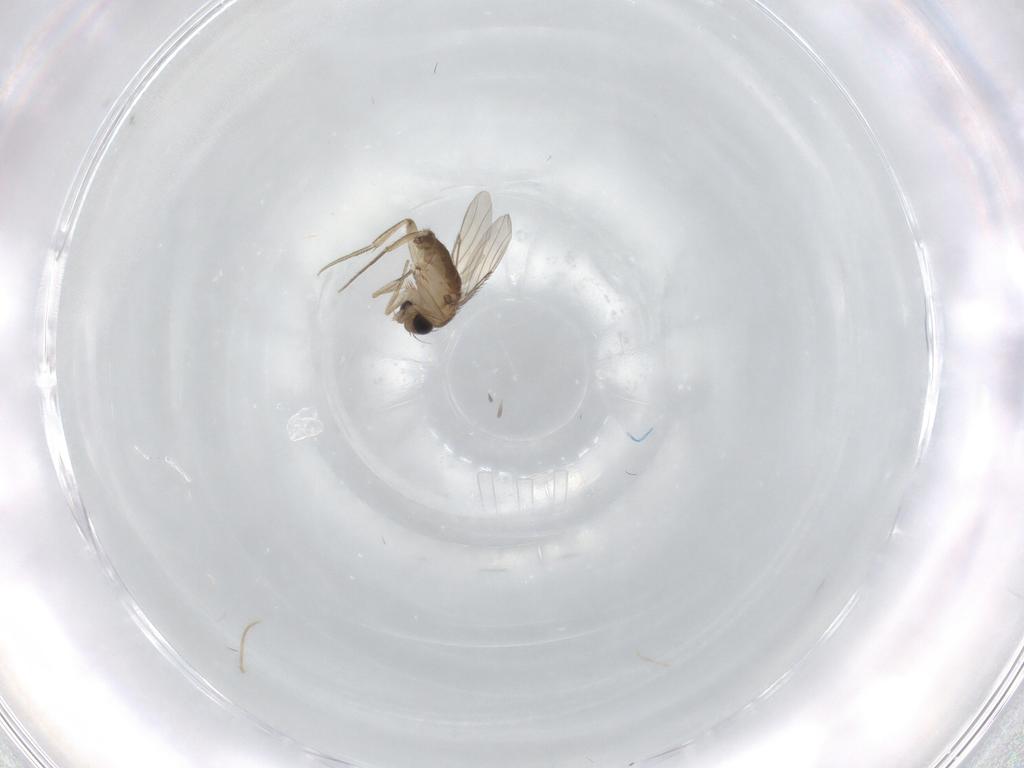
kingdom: Animalia
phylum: Arthropoda
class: Insecta
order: Diptera
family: Phoridae
